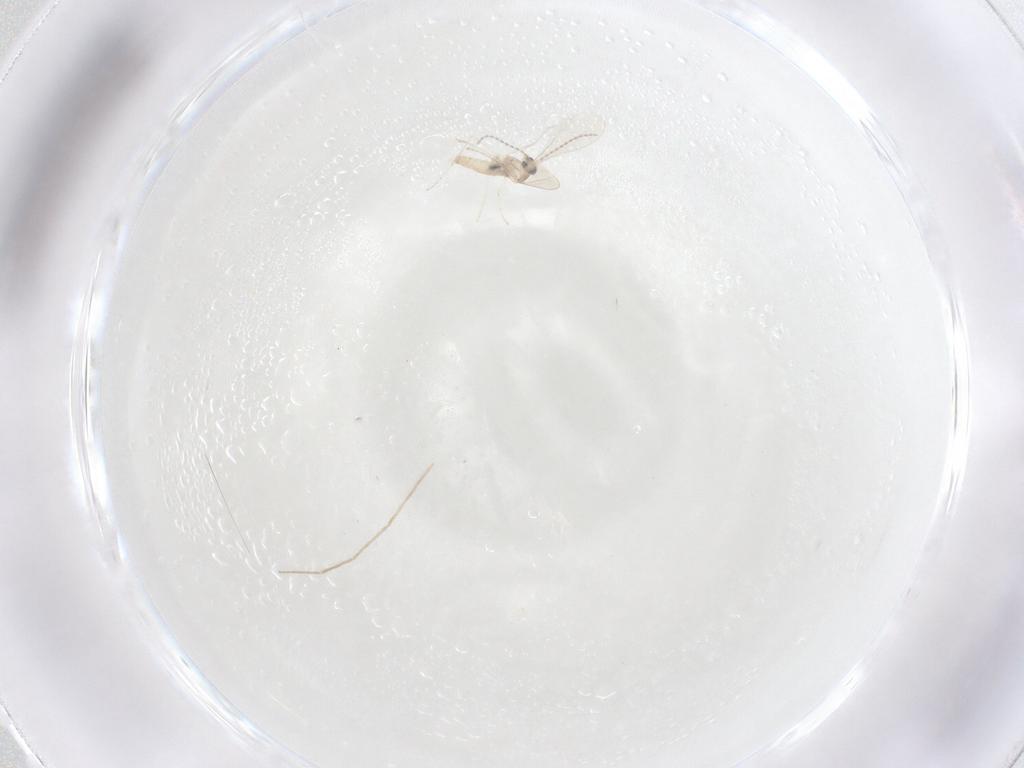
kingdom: Animalia
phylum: Arthropoda
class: Insecta
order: Diptera
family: Cecidomyiidae
